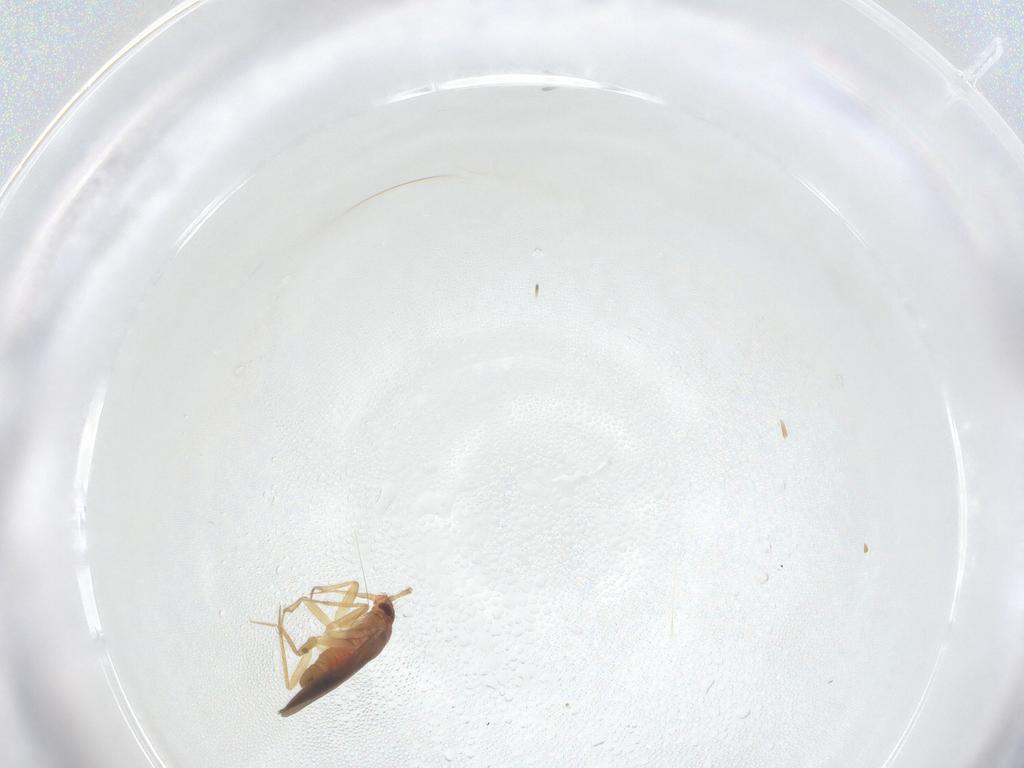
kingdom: Animalia
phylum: Arthropoda
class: Insecta
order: Hemiptera
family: Ceratocombidae
